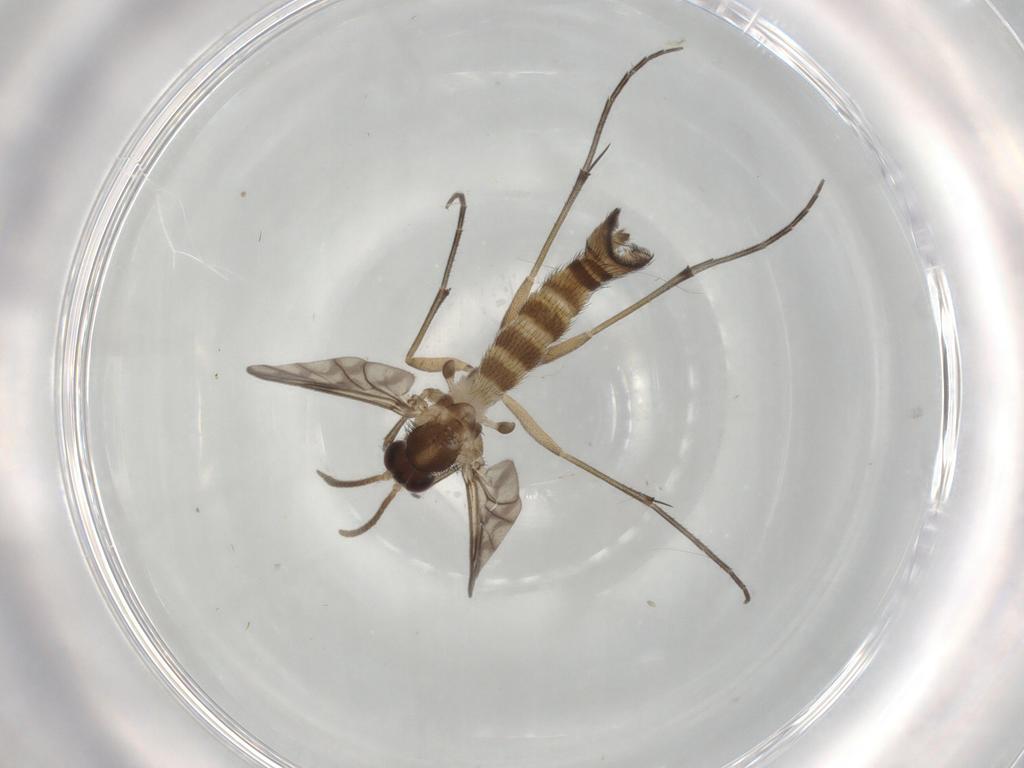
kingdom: Animalia
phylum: Arthropoda
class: Insecta
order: Diptera
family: Keroplatidae
